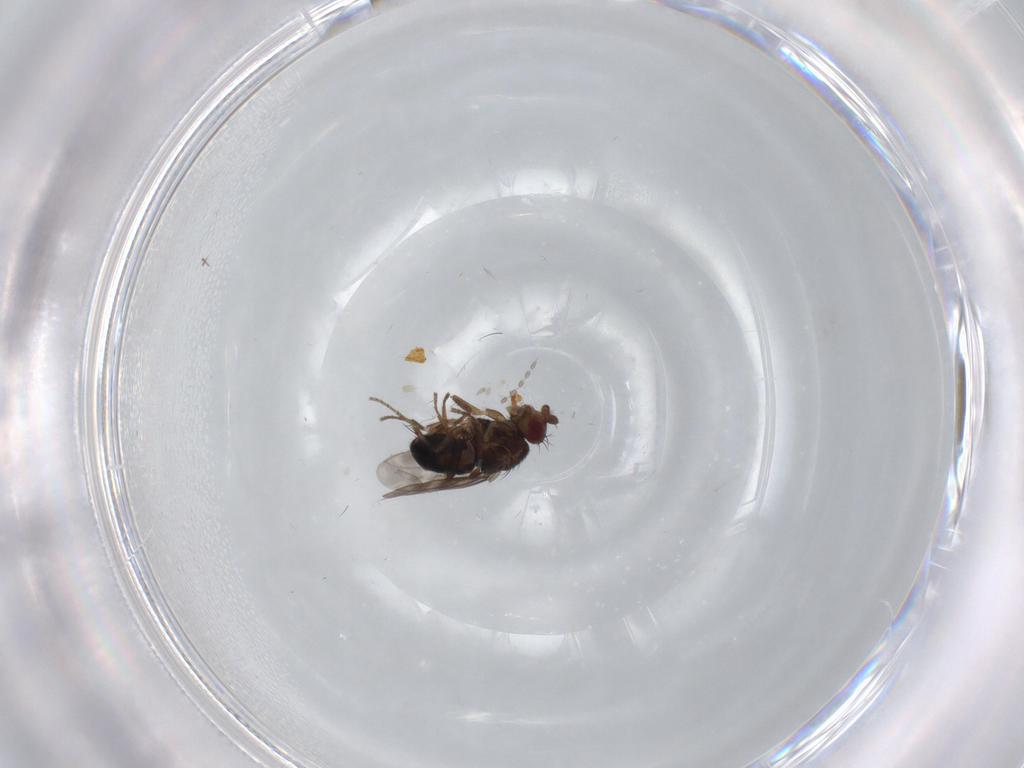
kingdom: Animalia
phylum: Arthropoda
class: Insecta
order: Diptera
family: Sphaeroceridae
